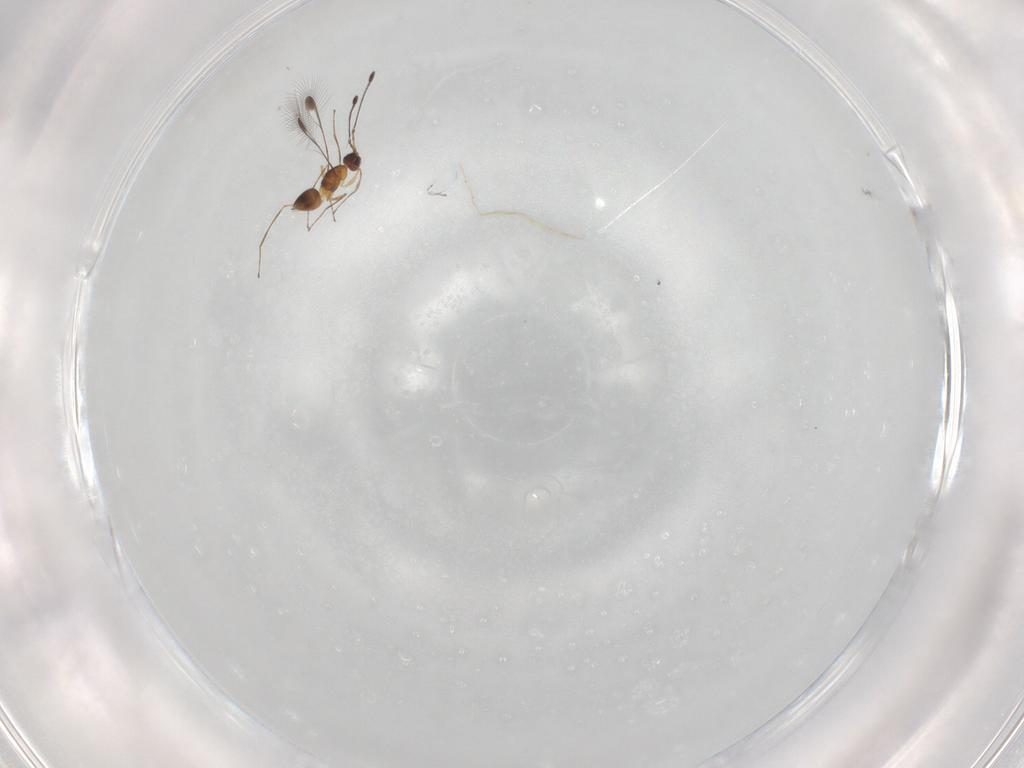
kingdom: Animalia
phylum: Arthropoda
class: Insecta
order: Hymenoptera
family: Mymaridae
